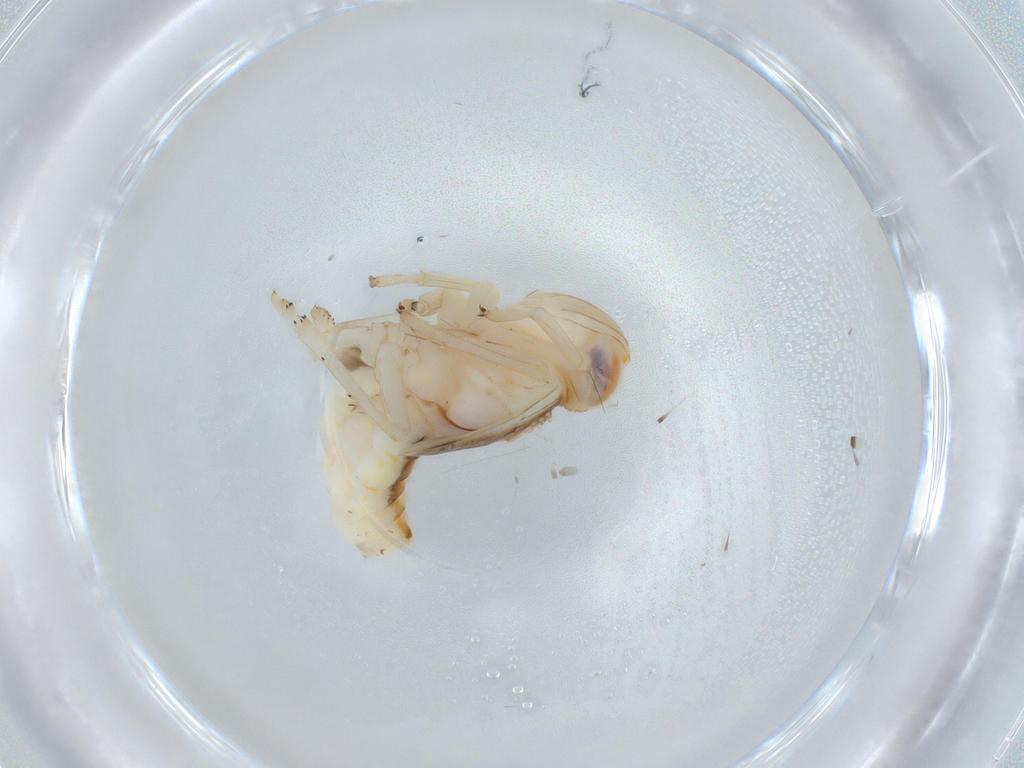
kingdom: Animalia
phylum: Arthropoda
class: Insecta
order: Hemiptera
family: Nogodinidae
